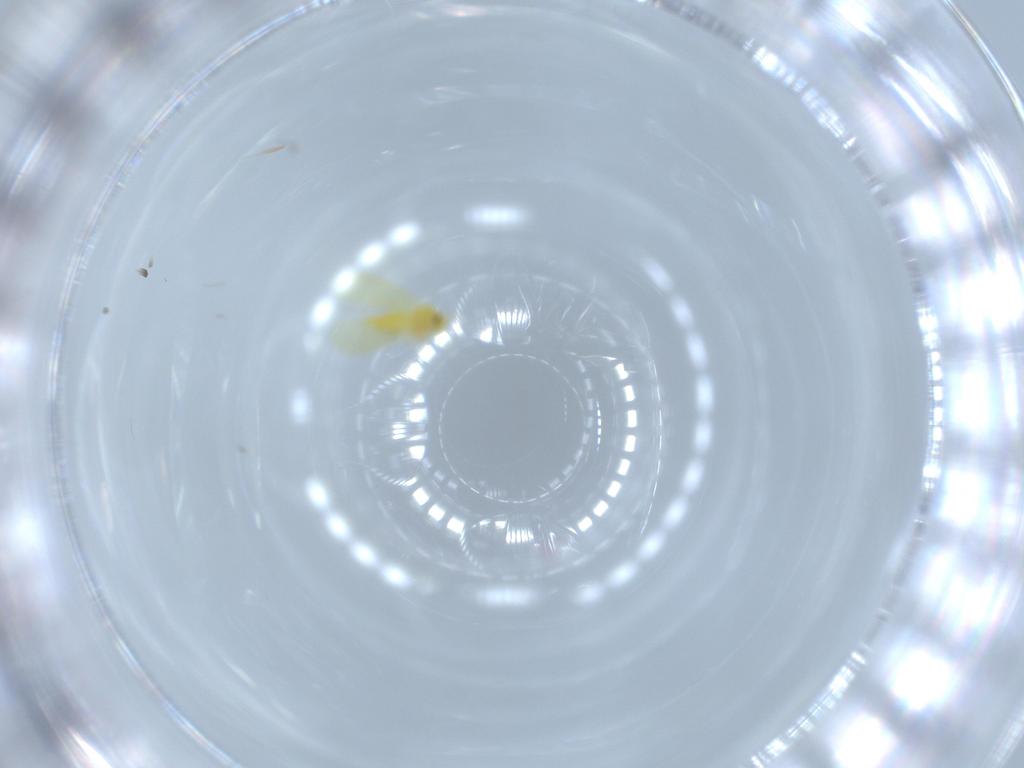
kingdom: Animalia
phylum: Arthropoda
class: Insecta
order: Hemiptera
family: Aleyrodidae
